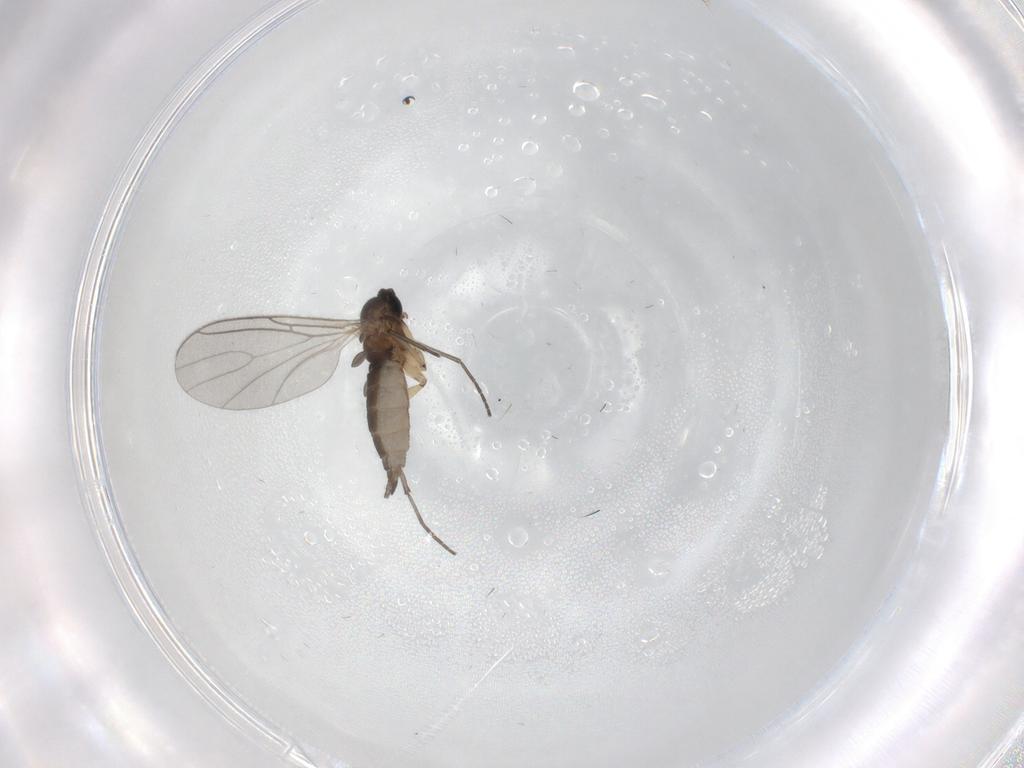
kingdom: Animalia
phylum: Arthropoda
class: Insecta
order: Diptera
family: Sciaridae
